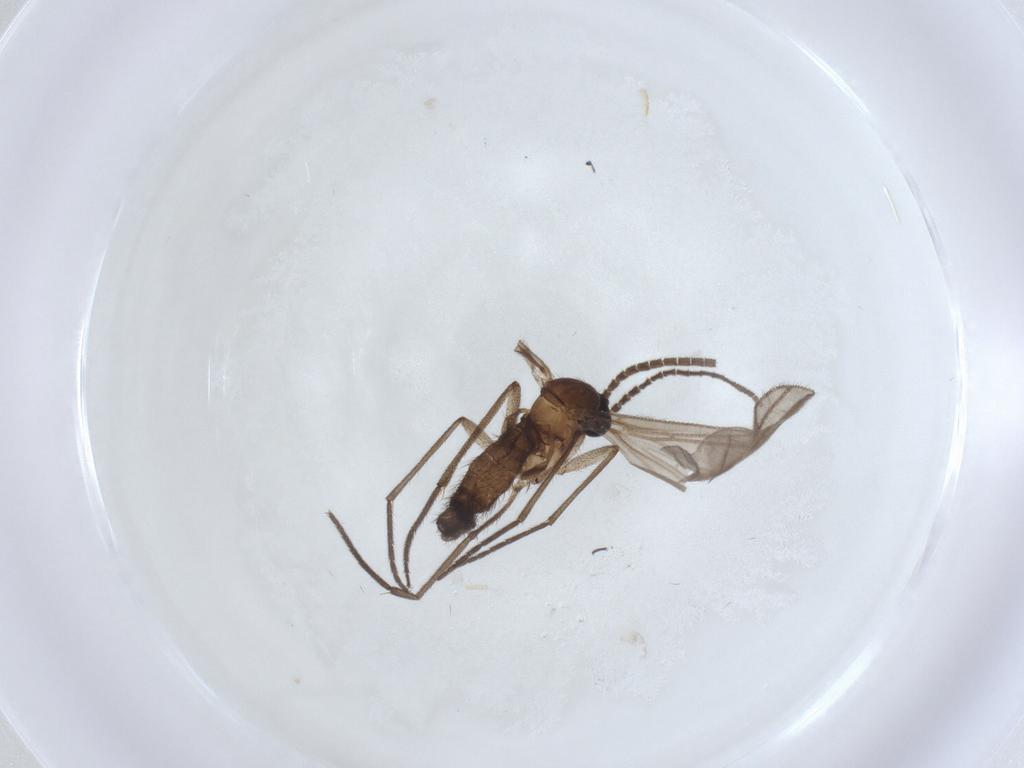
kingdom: Animalia
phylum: Arthropoda
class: Insecta
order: Diptera
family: Sciaridae
